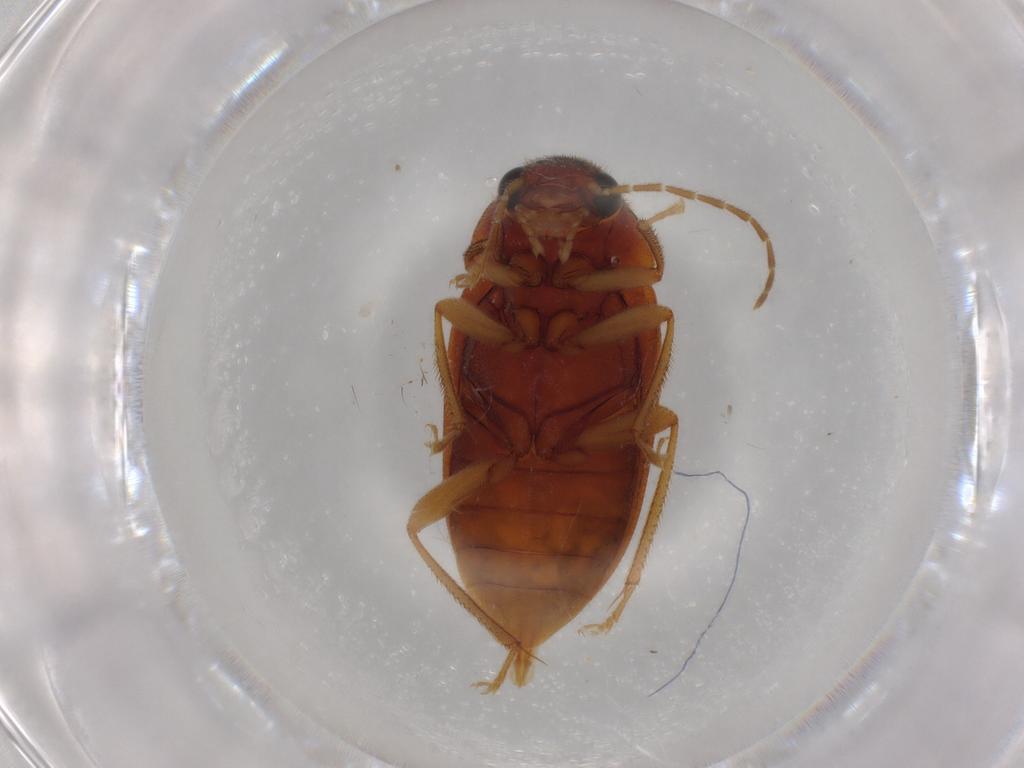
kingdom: Animalia
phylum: Arthropoda
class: Insecta
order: Coleoptera
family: Ptilodactylidae
